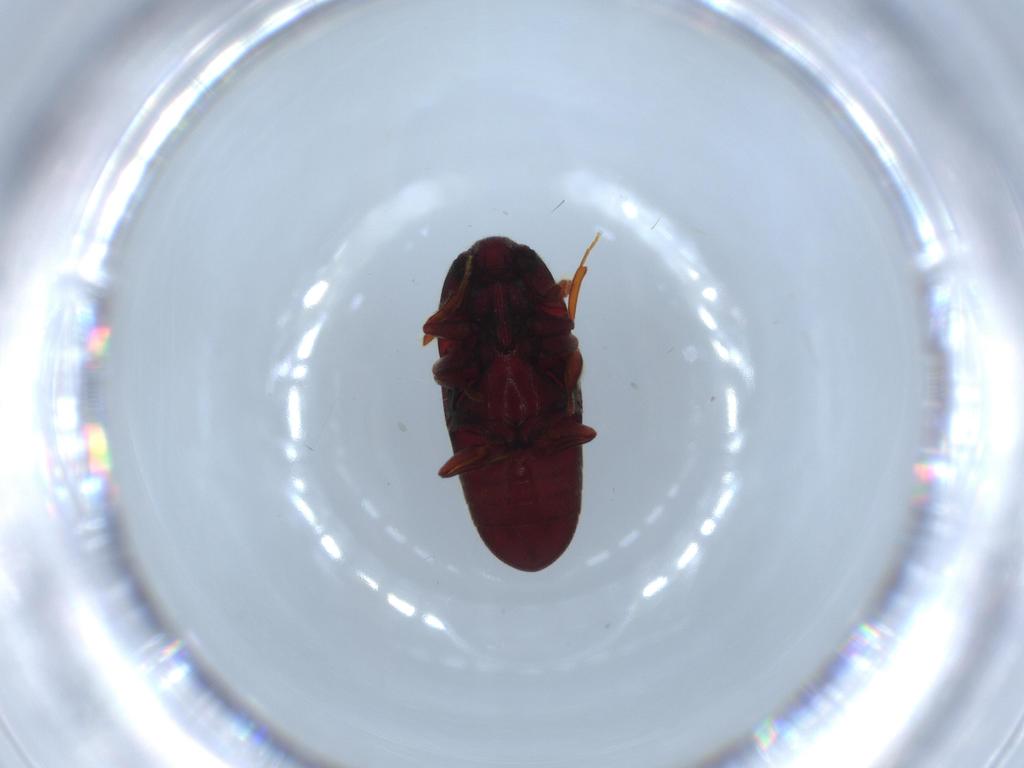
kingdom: Animalia
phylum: Arthropoda
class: Insecta
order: Coleoptera
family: Throscidae
